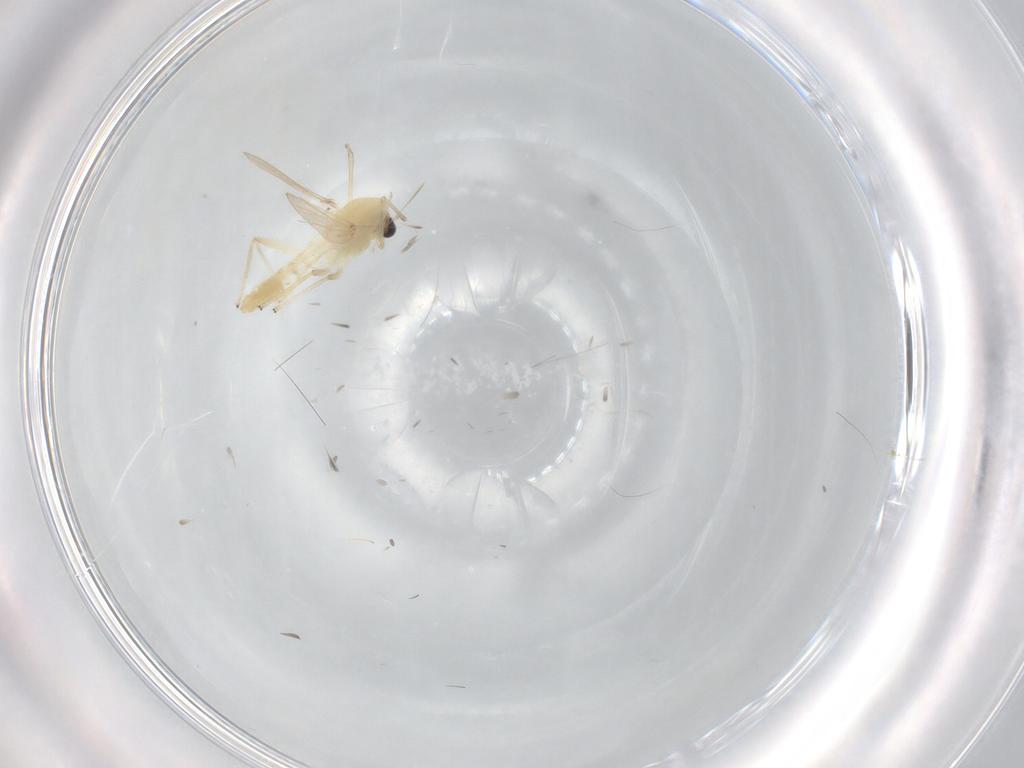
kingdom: Animalia
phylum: Arthropoda
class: Insecta
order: Diptera
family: Chironomidae
